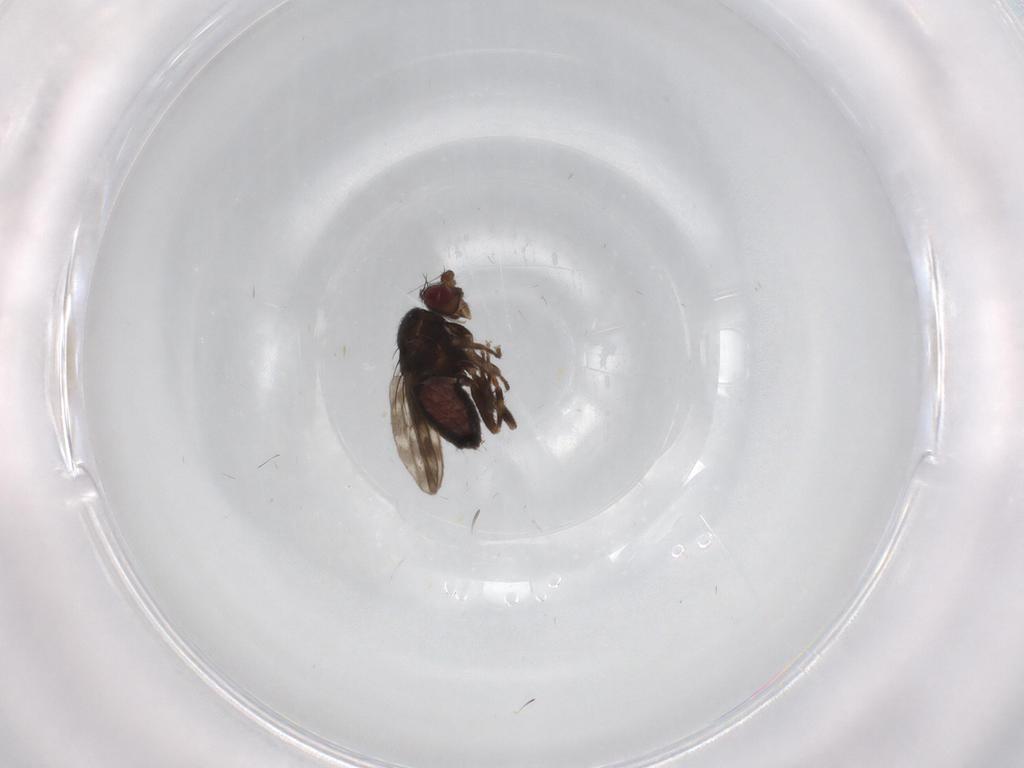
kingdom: Animalia
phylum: Arthropoda
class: Insecta
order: Diptera
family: Sphaeroceridae
